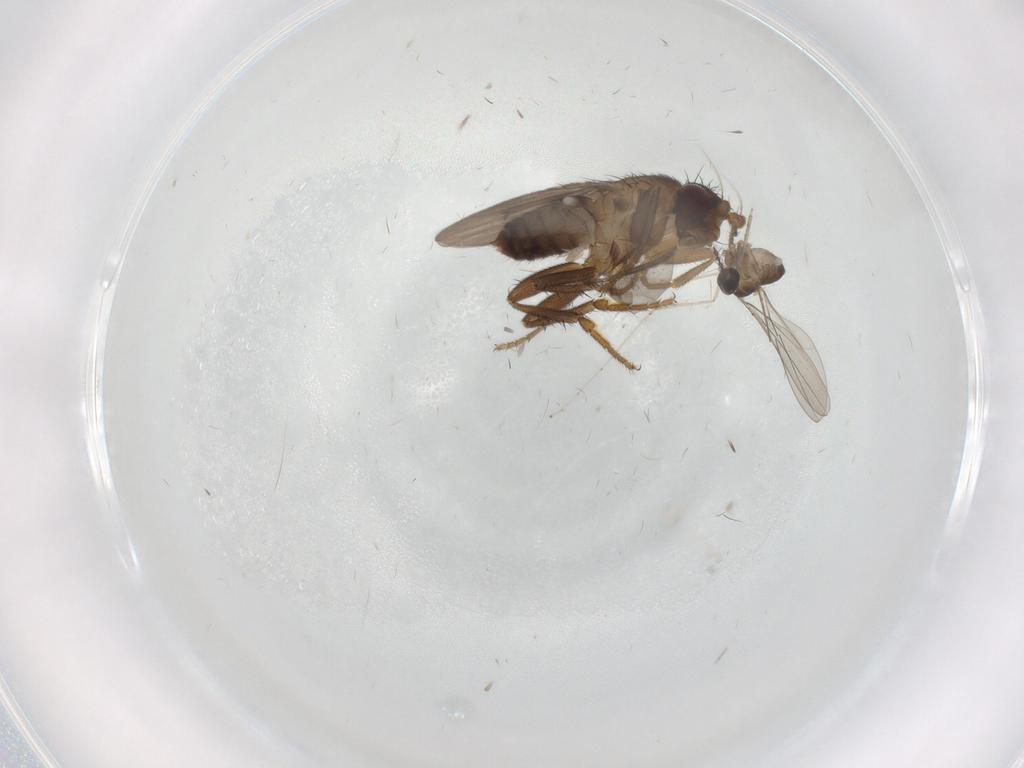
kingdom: Animalia
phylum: Arthropoda
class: Insecta
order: Diptera
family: Cecidomyiidae
